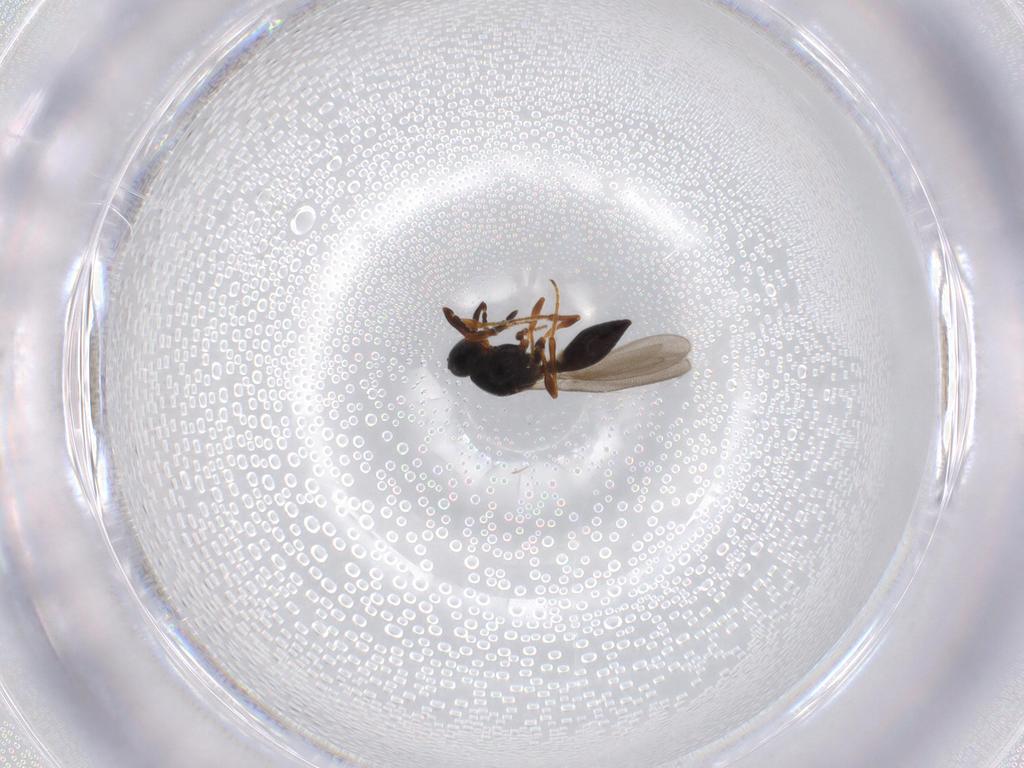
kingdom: Animalia
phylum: Arthropoda
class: Insecta
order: Hymenoptera
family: Platygastridae
